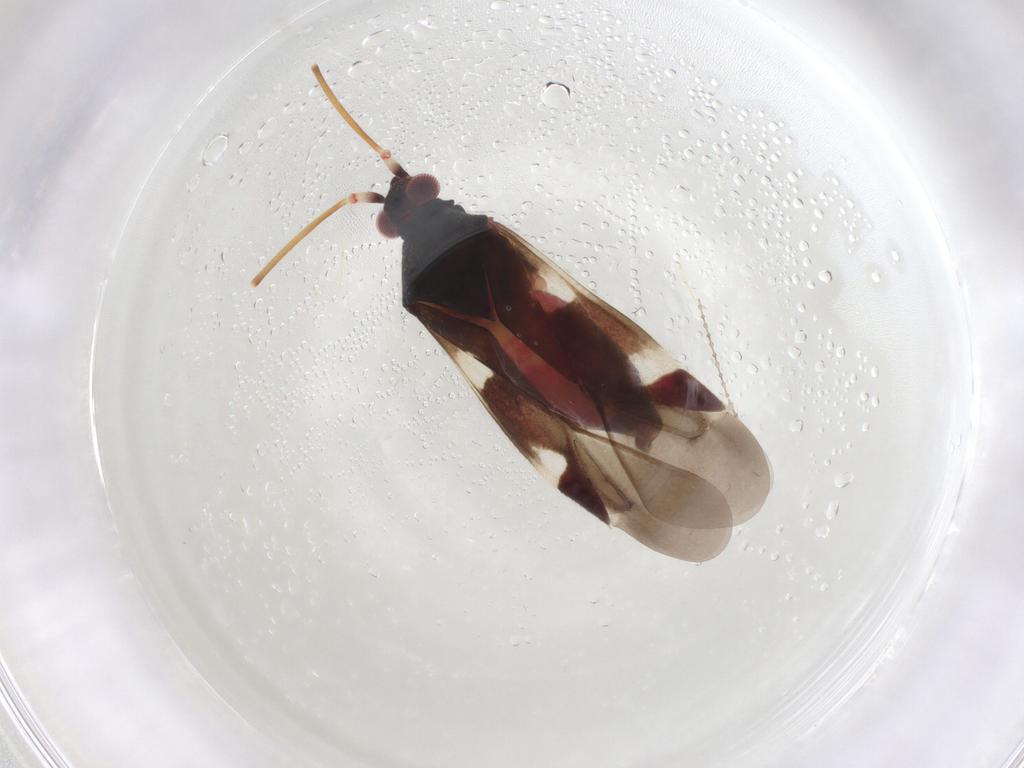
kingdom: Animalia
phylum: Arthropoda
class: Insecta
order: Hemiptera
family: Miridae
